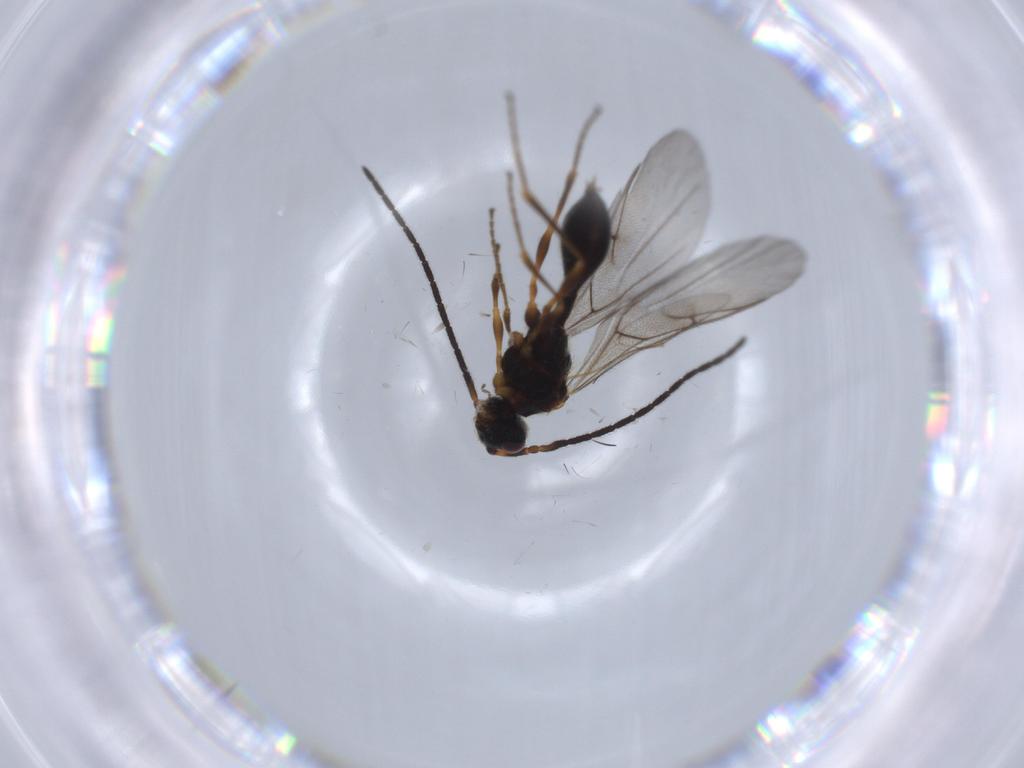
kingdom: Animalia
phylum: Arthropoda
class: Insecta
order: Hymenoptera
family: Diapriidae
